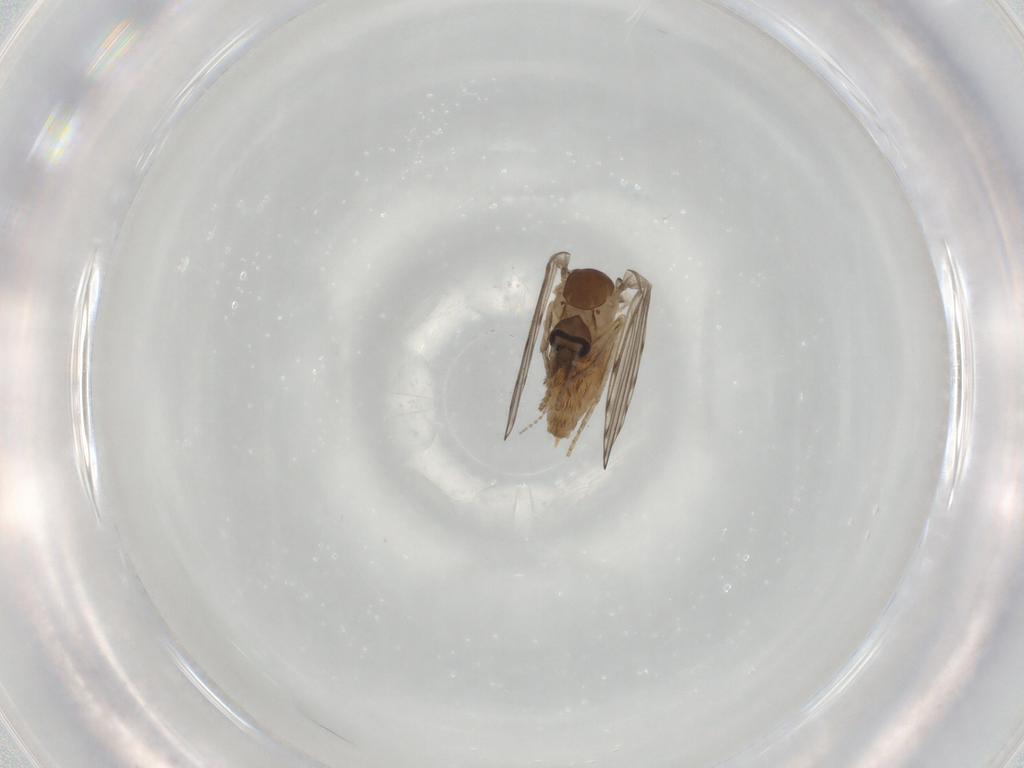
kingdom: Animalia
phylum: Arthropoda
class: Insecta
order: Diptera
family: Psychodidae
